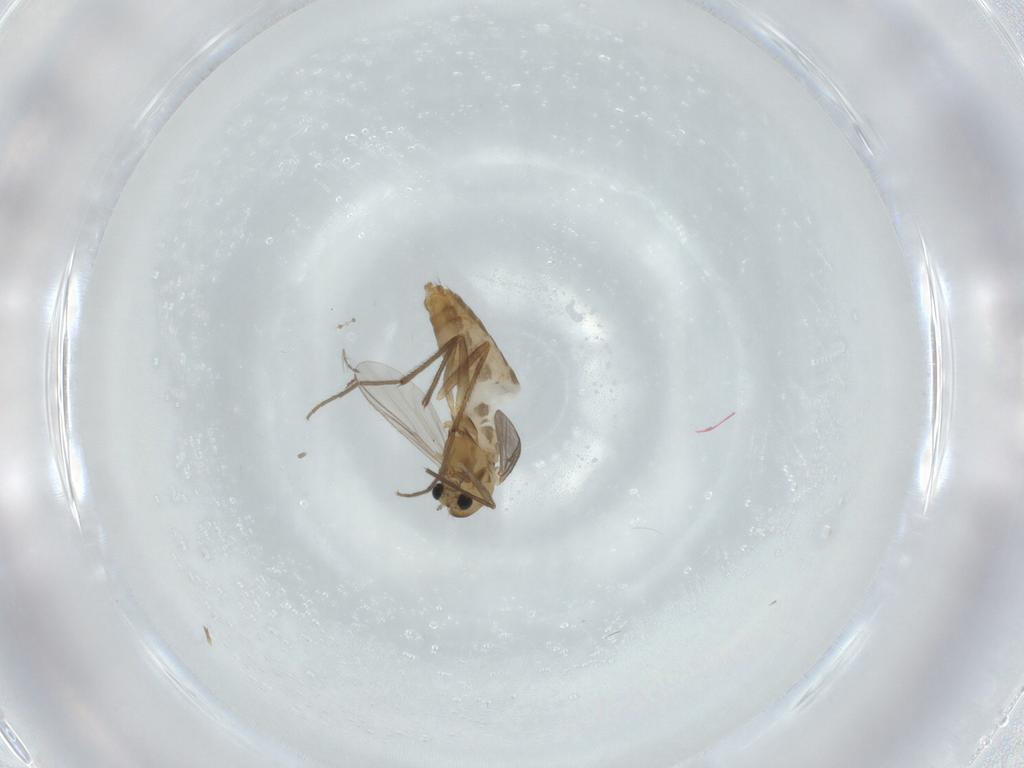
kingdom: Animalia
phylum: Arthropoda
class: Insecta
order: Diptera
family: Chironomidae
